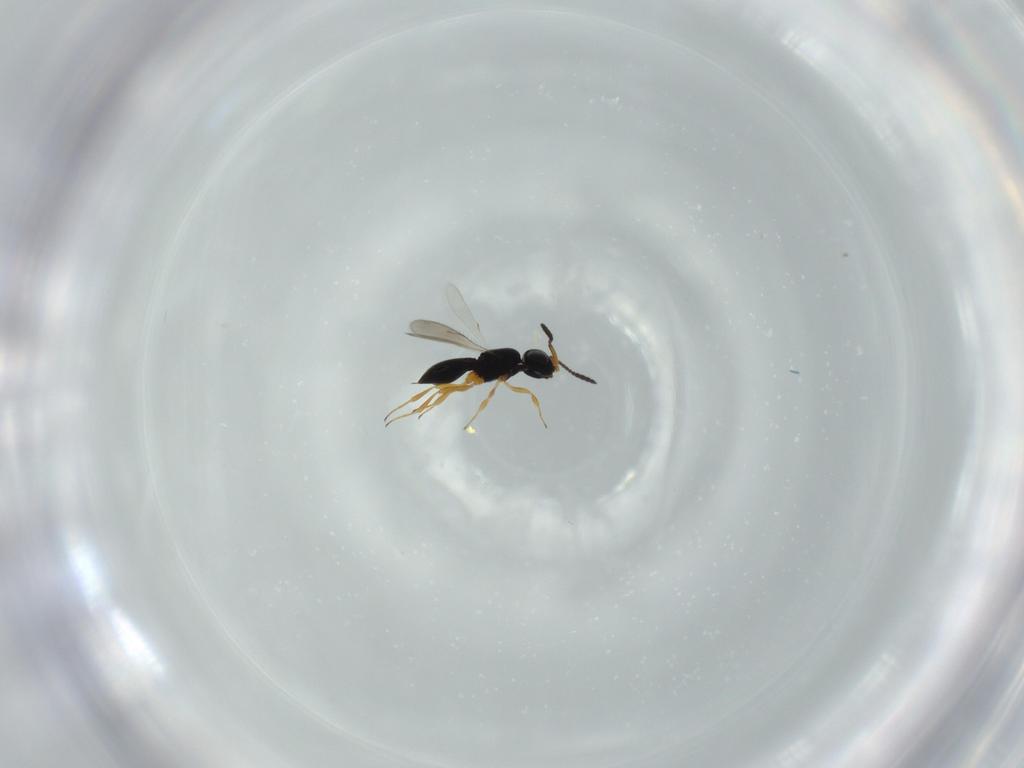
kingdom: Animalia
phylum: Arthropoda
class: Insecta
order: Hymenoptera
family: Scelionidae
